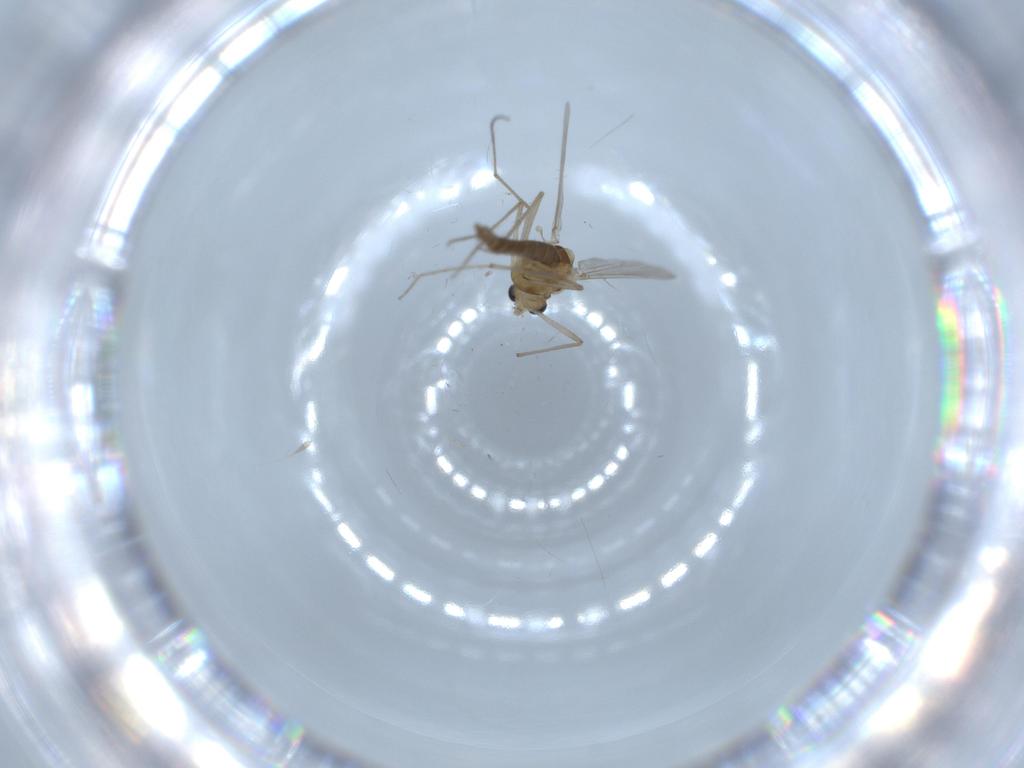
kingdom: Animalia
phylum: Arthropoda
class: Insecta
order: Diptera
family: Chironomidae
